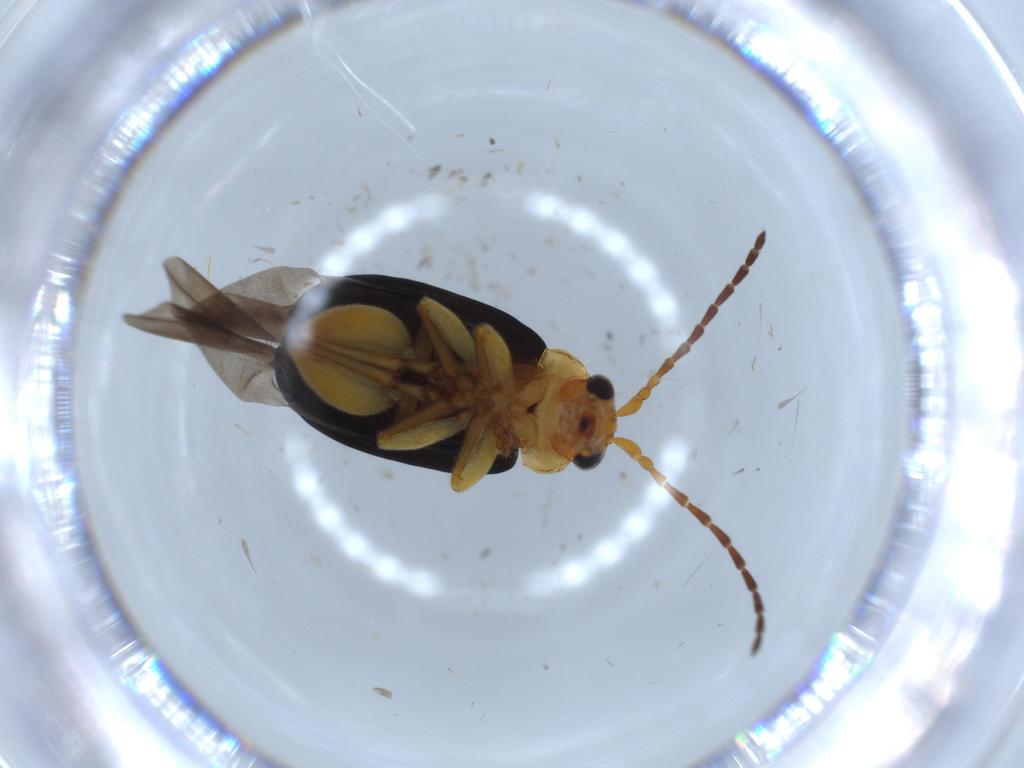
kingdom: Animalia
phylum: Arthropoda
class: Insecta
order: Coleoptera
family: Chrysomelidae
